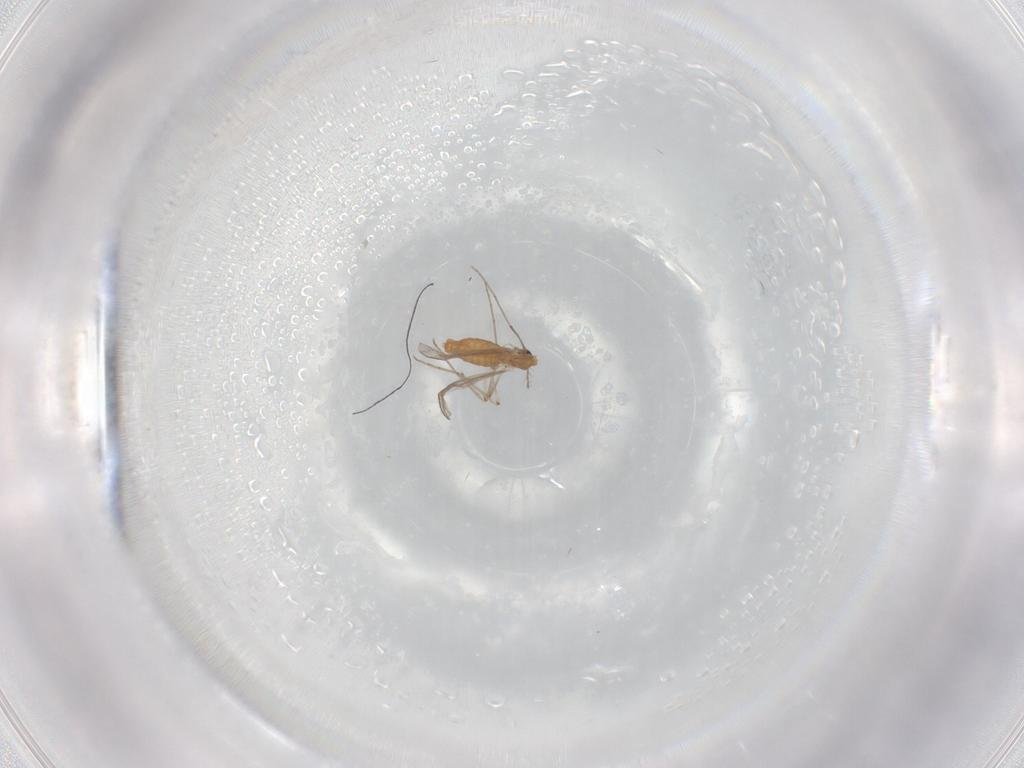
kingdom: Animalia
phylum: Arthropoda
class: Insecta
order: Diptera
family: Chironomidae
